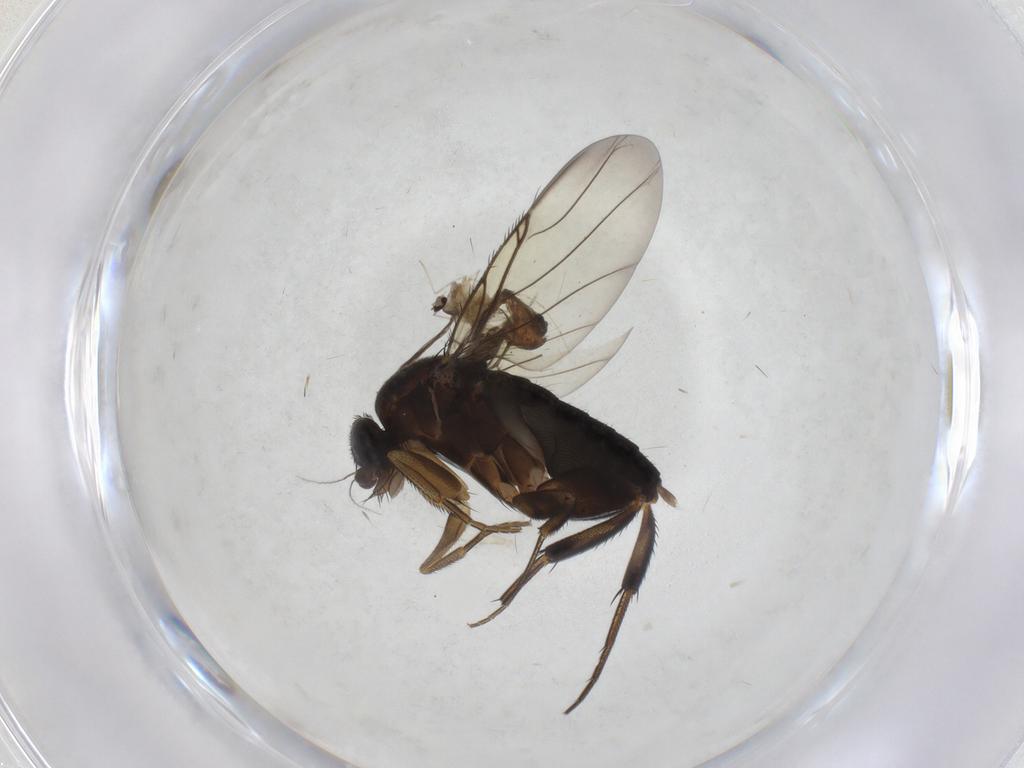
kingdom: Animalia
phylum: Arthropoda
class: Insecta
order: Diptera
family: Phoridae
